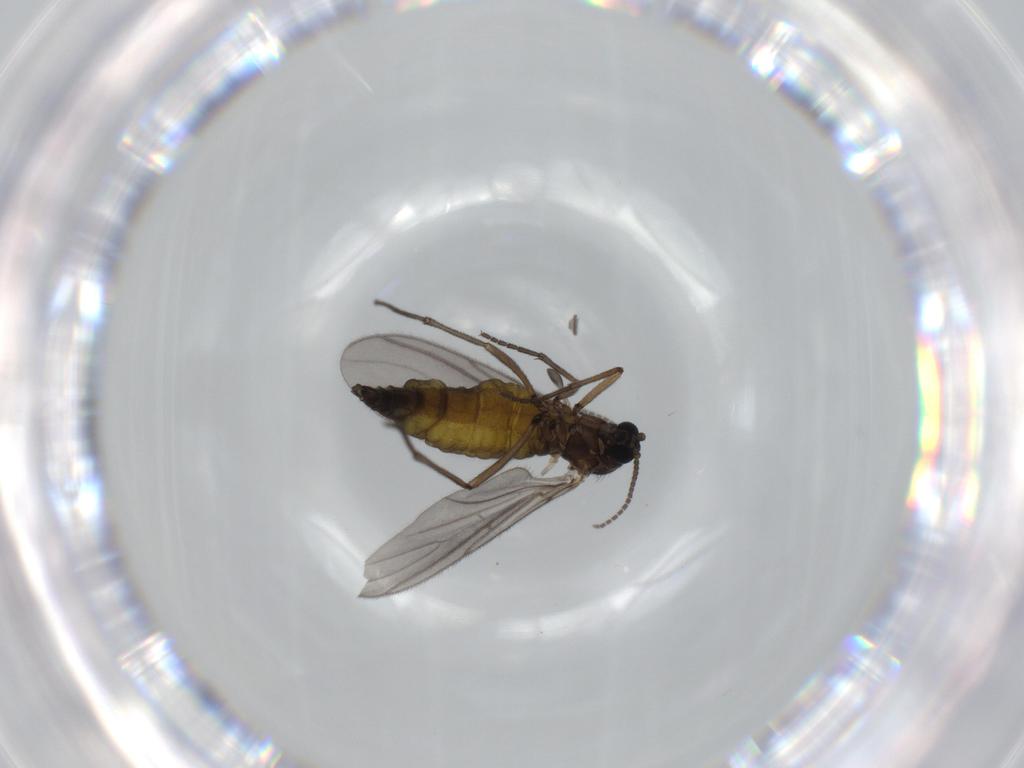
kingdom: Animalia
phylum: Arthropoda
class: Insecta
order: Diptera
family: Sciaridae
